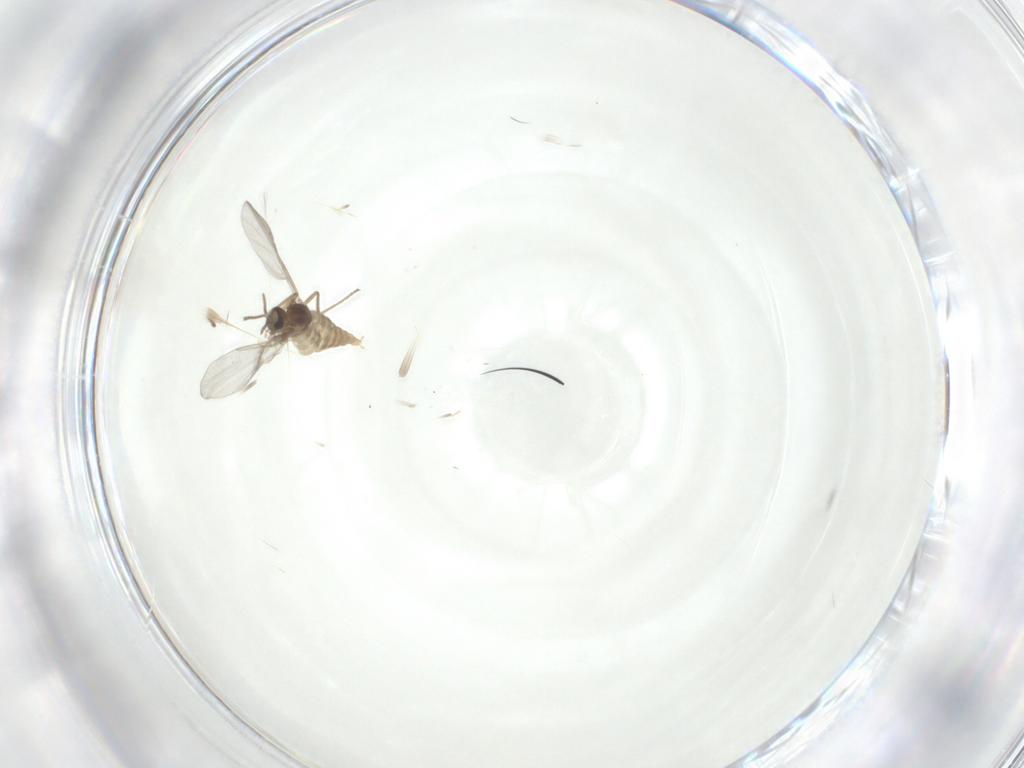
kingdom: Animalia
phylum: Arthropoda
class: Insecta
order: Diptera
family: Cecidomyiidae
